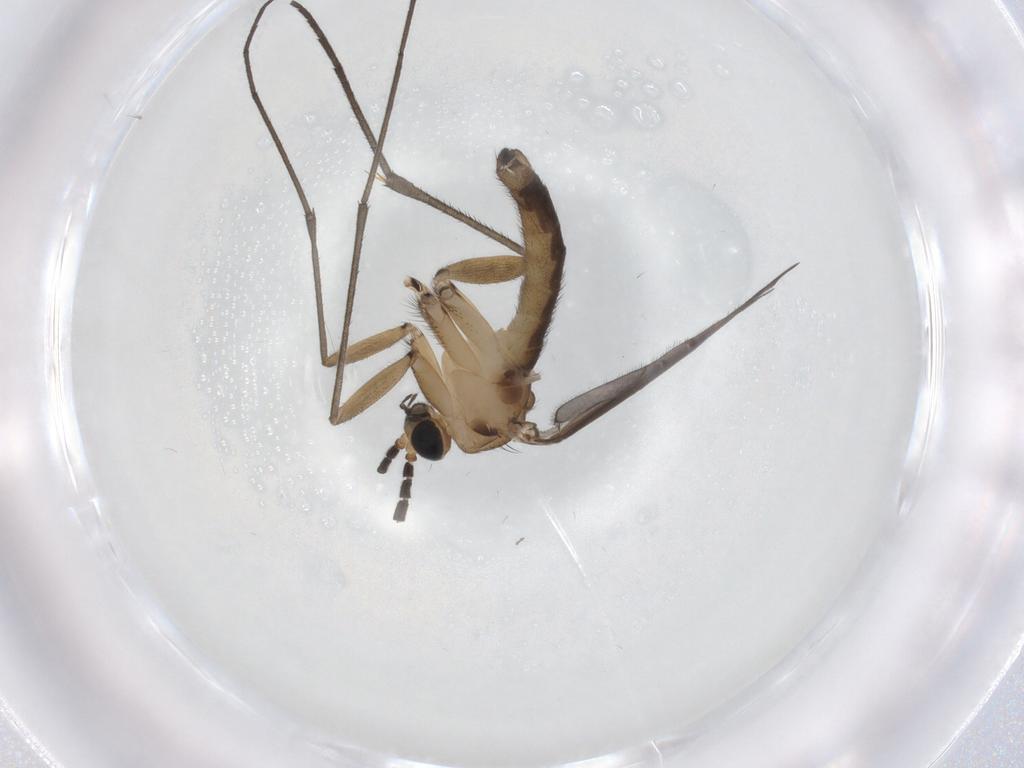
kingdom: Animalia
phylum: Arthropoda
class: Insecta
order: Diptera
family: Sciaridae
